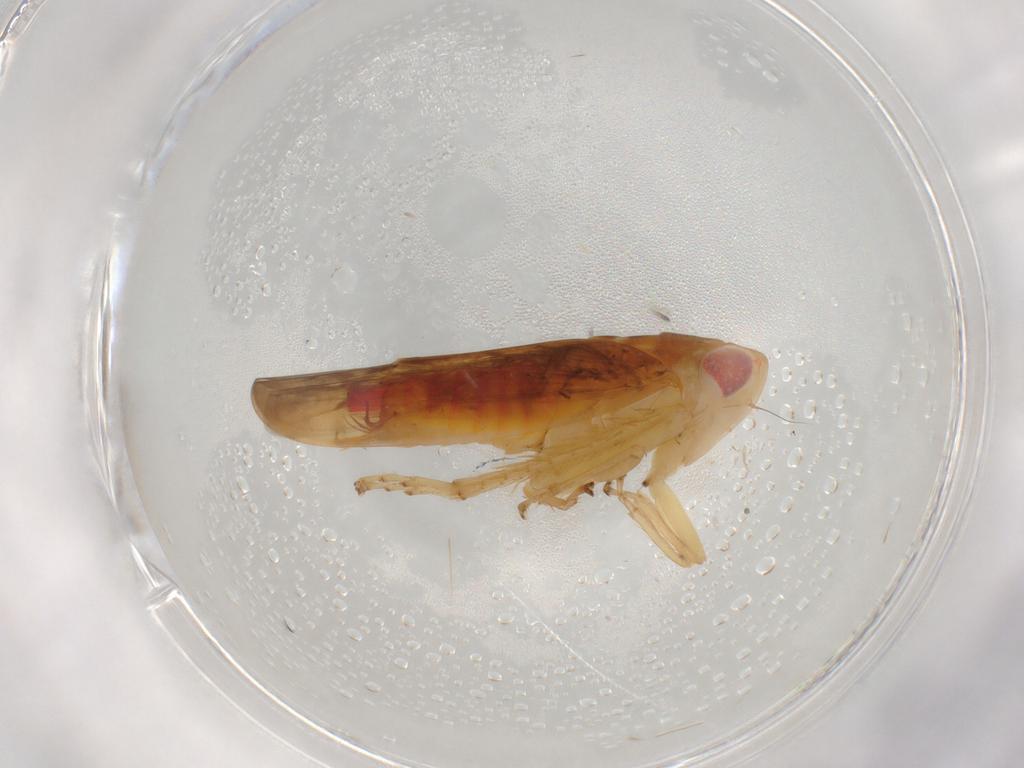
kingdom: Animalia
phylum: Arthropoda
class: Insecta
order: Hemiptera
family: Cicadellidae
